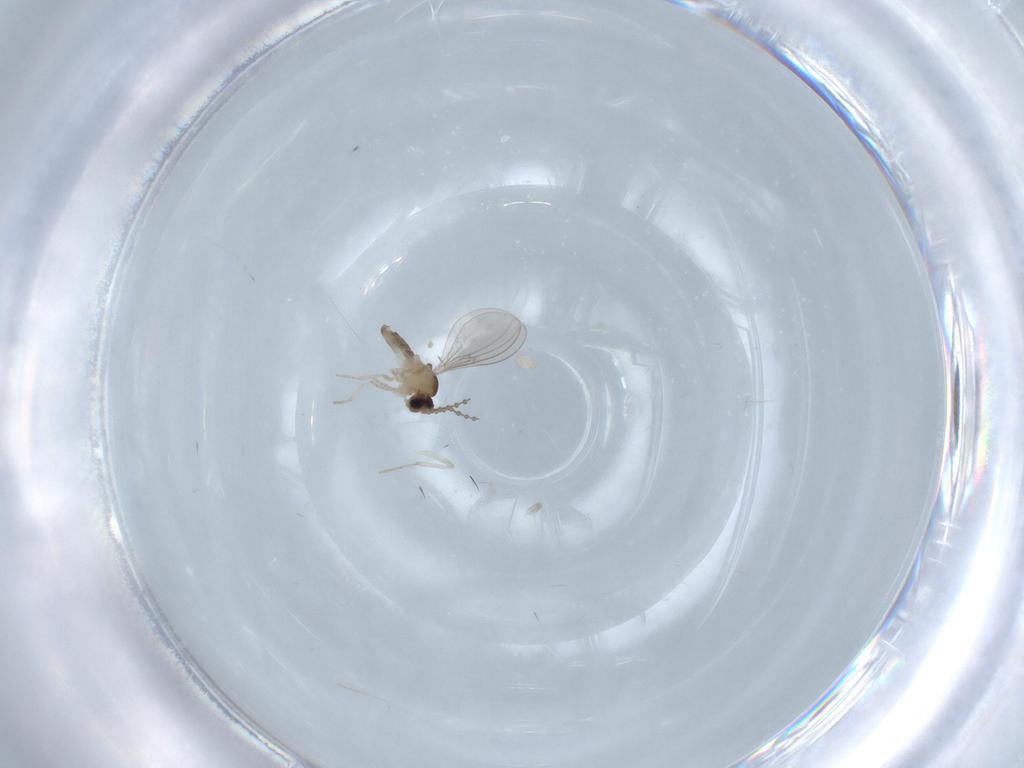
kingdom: Animalia
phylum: Arthropoda
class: Insecta
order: Diptera
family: Cecidomyiidae
